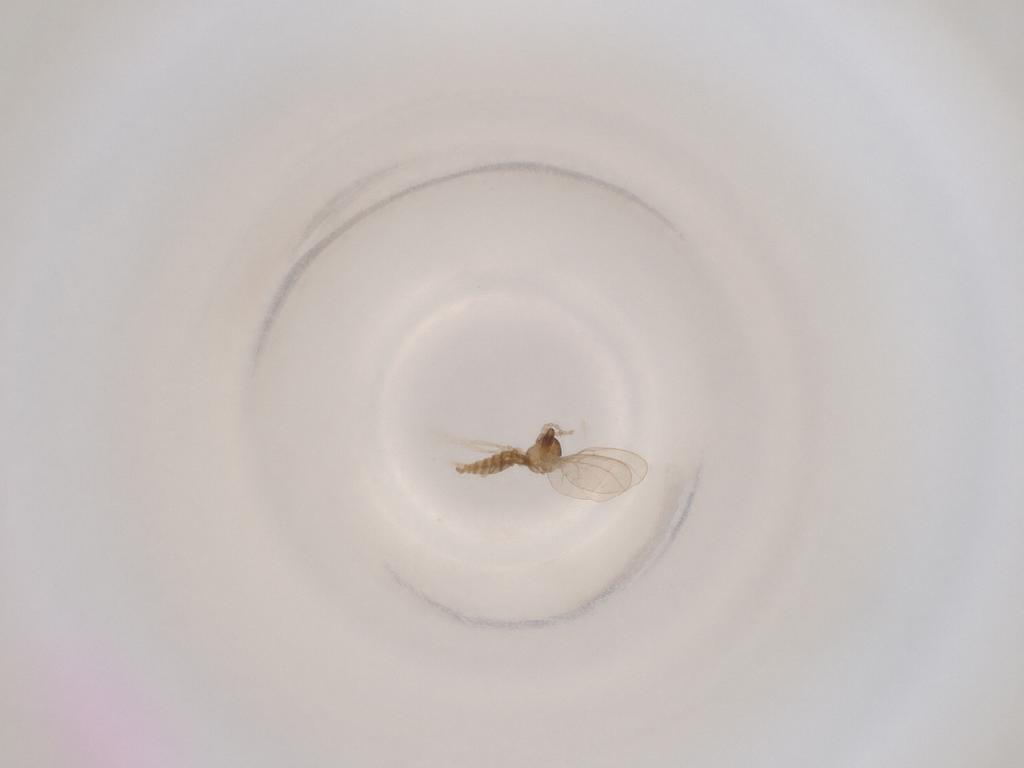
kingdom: Animalia
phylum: Arthropoda
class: Insecta
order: Diptera
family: Cecidomyiidae
